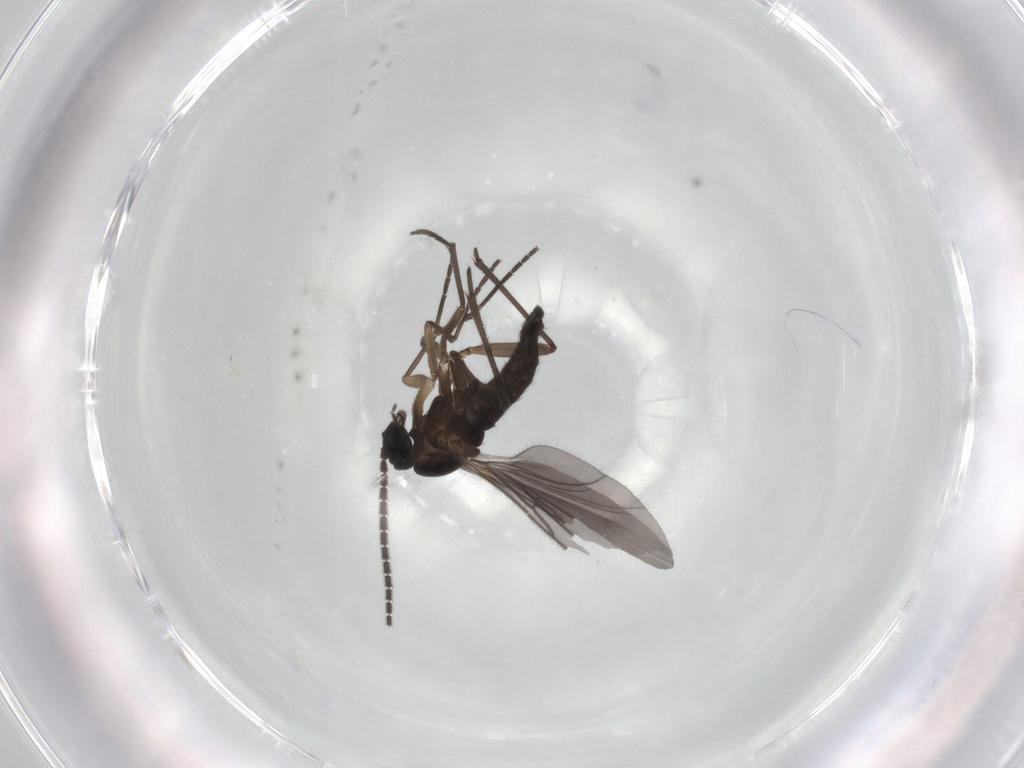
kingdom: Animalia
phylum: Arthropoda
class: Insecta
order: Diptera
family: Sciaridae
